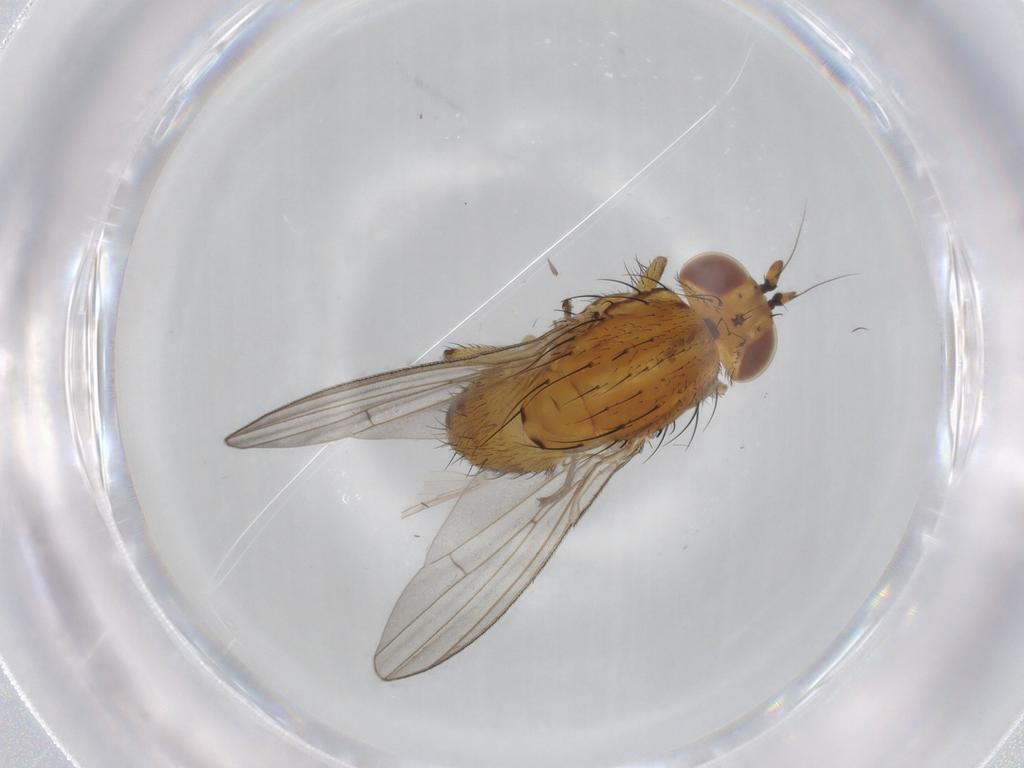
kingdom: Animalia
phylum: Arthropoda
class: Insecta
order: Diptera
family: Lauxaniidae
